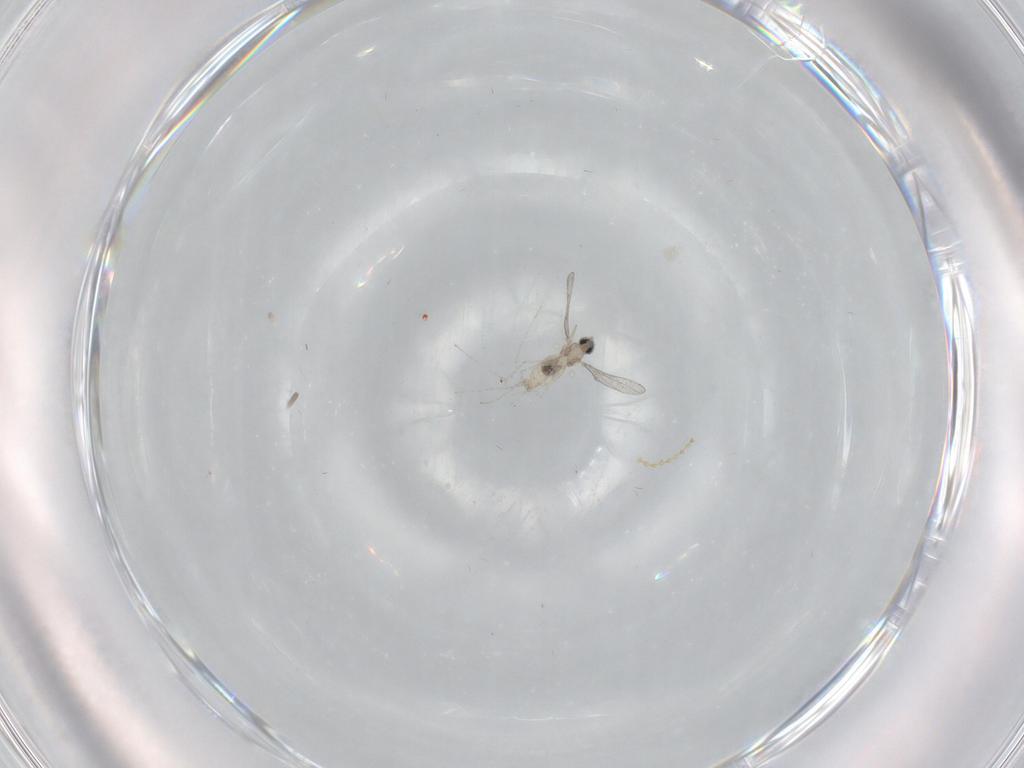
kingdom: Animalia
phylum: Arthropoda
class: Insecta
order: Diptera
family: Cecidomyiidae
